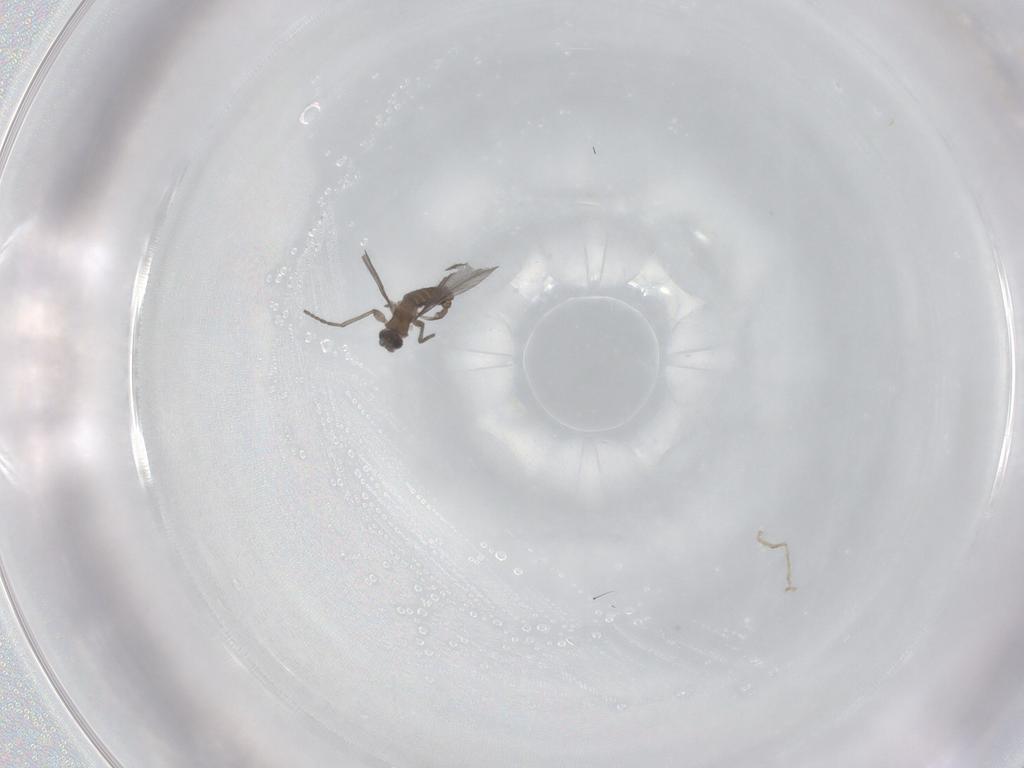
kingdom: Animalia
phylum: Arthropoda
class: Insecta
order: Diptera
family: Sciaridae
